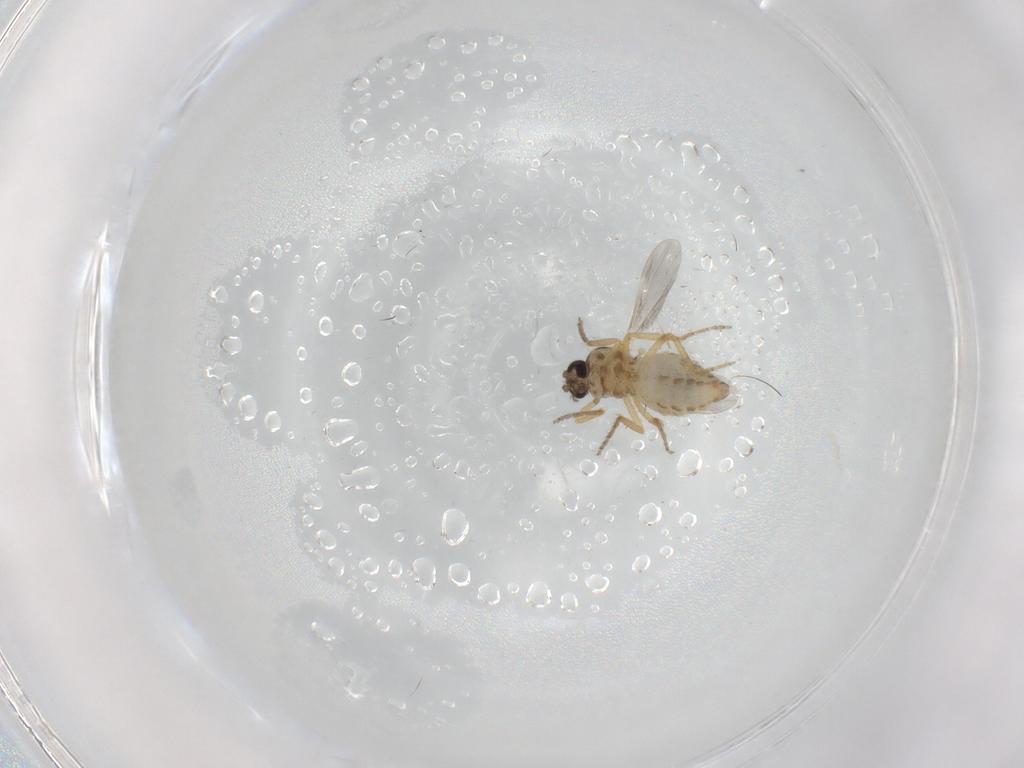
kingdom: Animalia
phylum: Arthropoda
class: Insecta
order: Diptera
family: Ceratopogonidae
